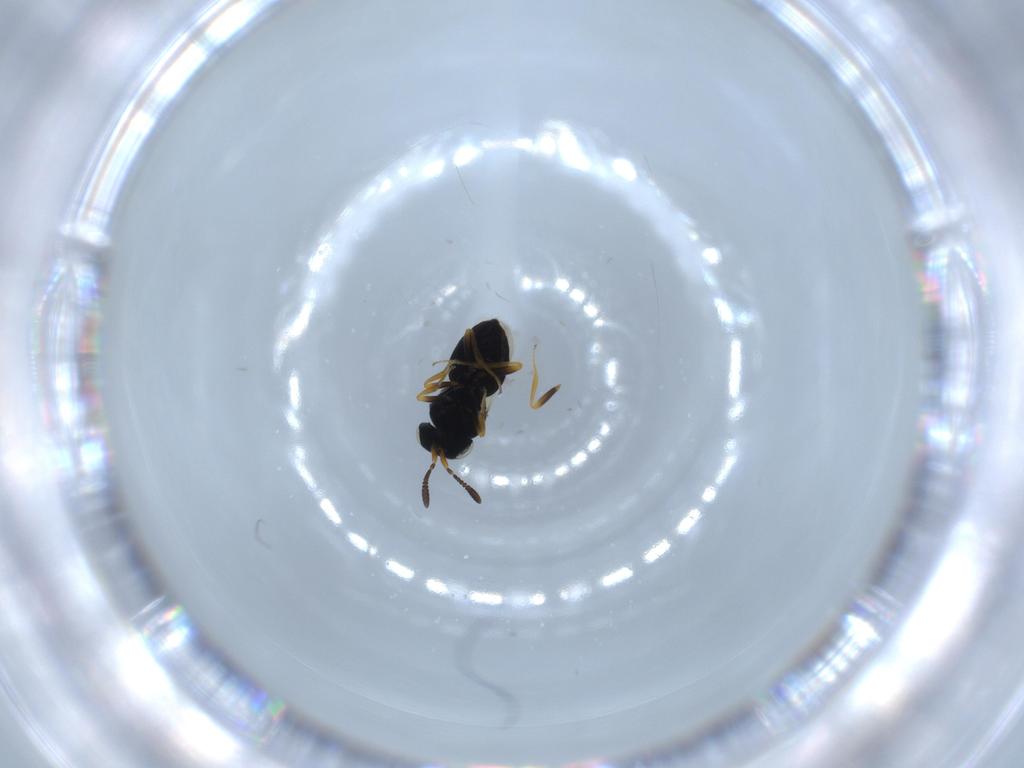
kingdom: Animalia
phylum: Arthropoda
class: Insecta
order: Hymenoptera
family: Scelionidae
